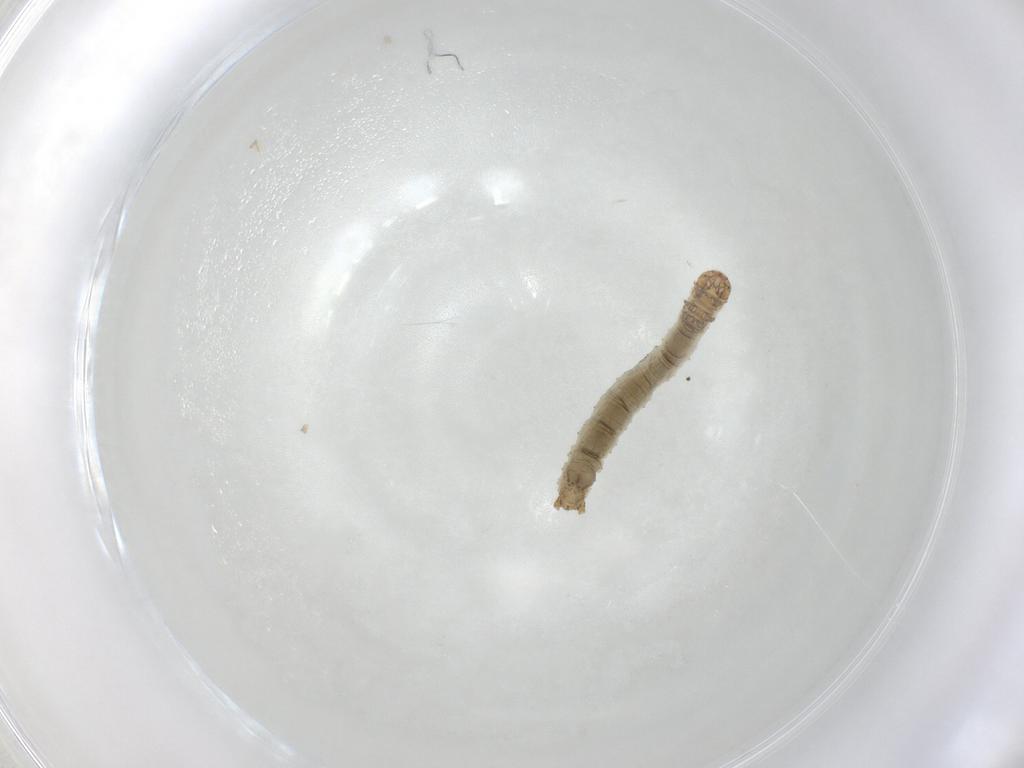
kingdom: Animalia
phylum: Arthropoda
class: Insecta
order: Lepidoptera
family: Geometridae
